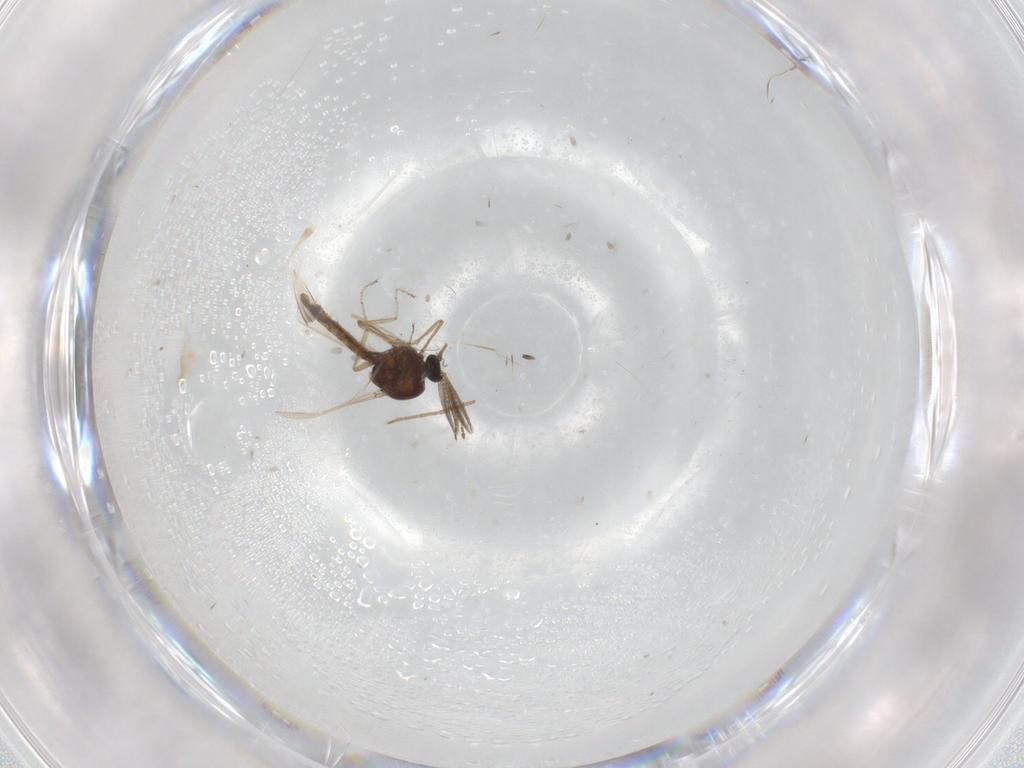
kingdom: Animalia
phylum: Arthropoda
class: Insecta
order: Diptera
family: Ceratopogonidae
